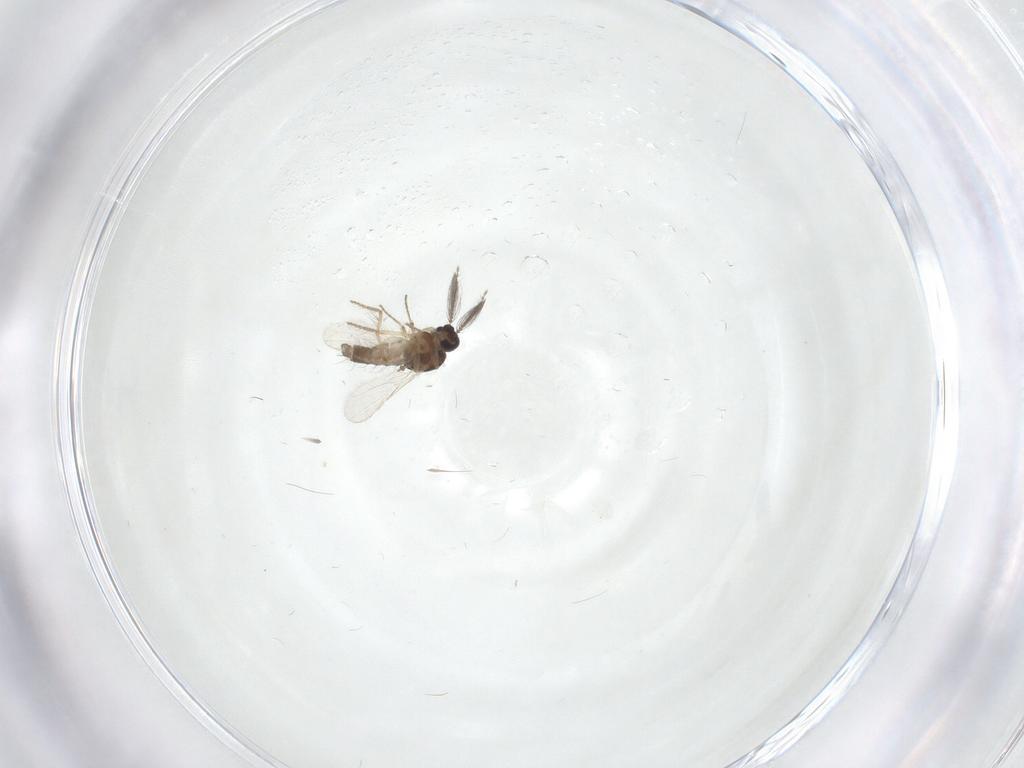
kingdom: Animalia
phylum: Arthropoda
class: Insecta
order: Diptera
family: Ceratopogonidae
